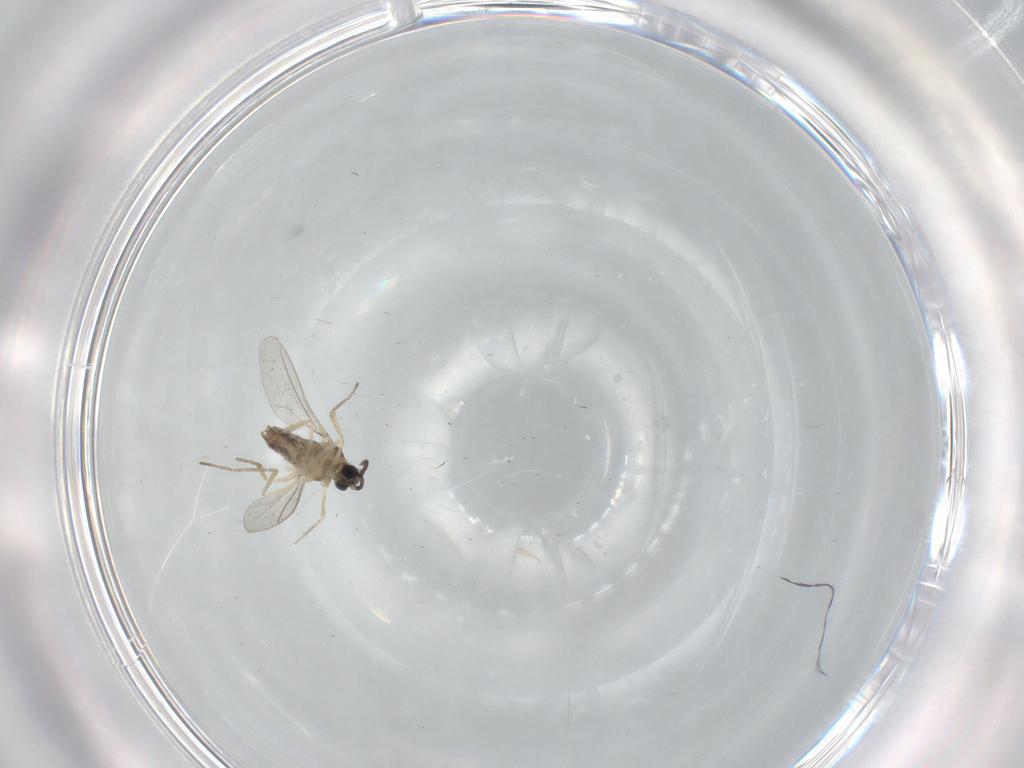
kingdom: Animalia
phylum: Arthropoda
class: Insecta
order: Diptera
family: Cecidomyiidae
